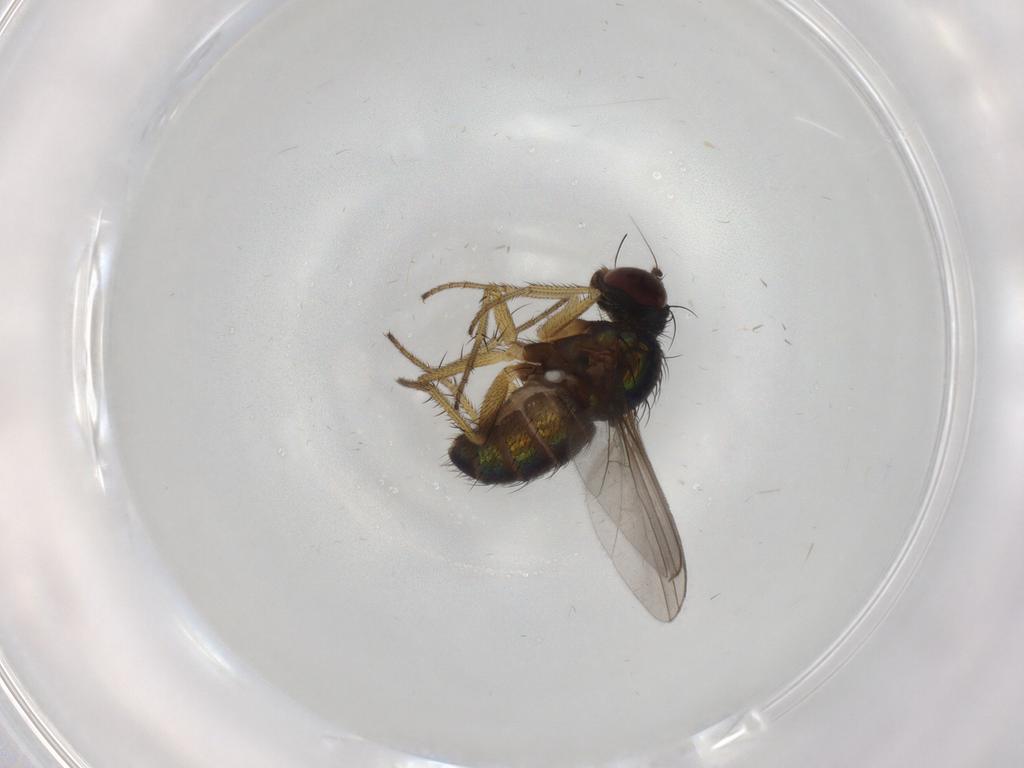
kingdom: Animalia
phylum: Arthropoda
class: Insecta
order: Diptera
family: Dolichopodidae
